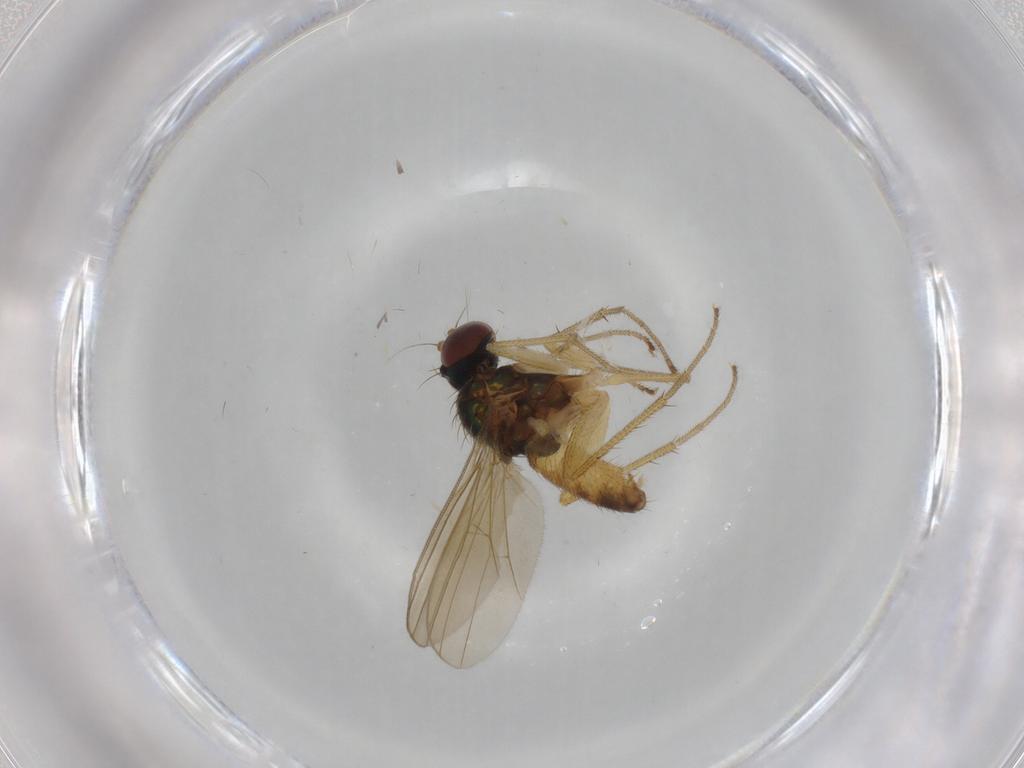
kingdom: Animalia
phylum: Arthropoda
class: Insecta
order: Diptera
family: Dolichopodidae
